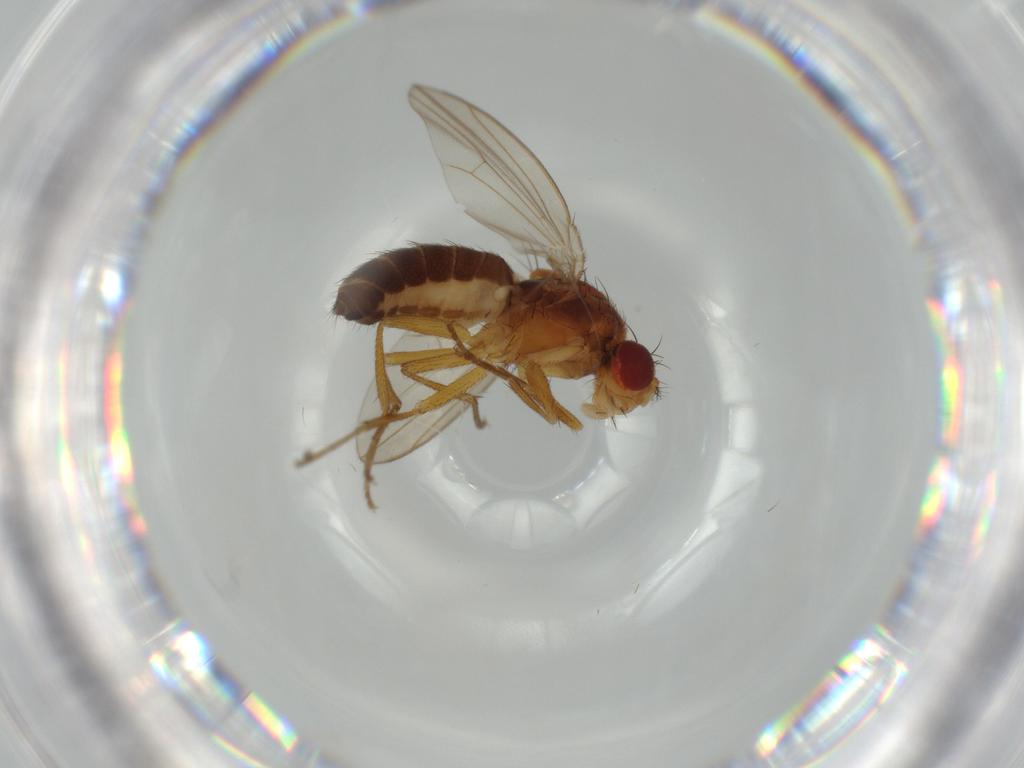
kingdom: Animalia
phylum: Arthropoda
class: Insecta
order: Diptera
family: Drosophilidae
